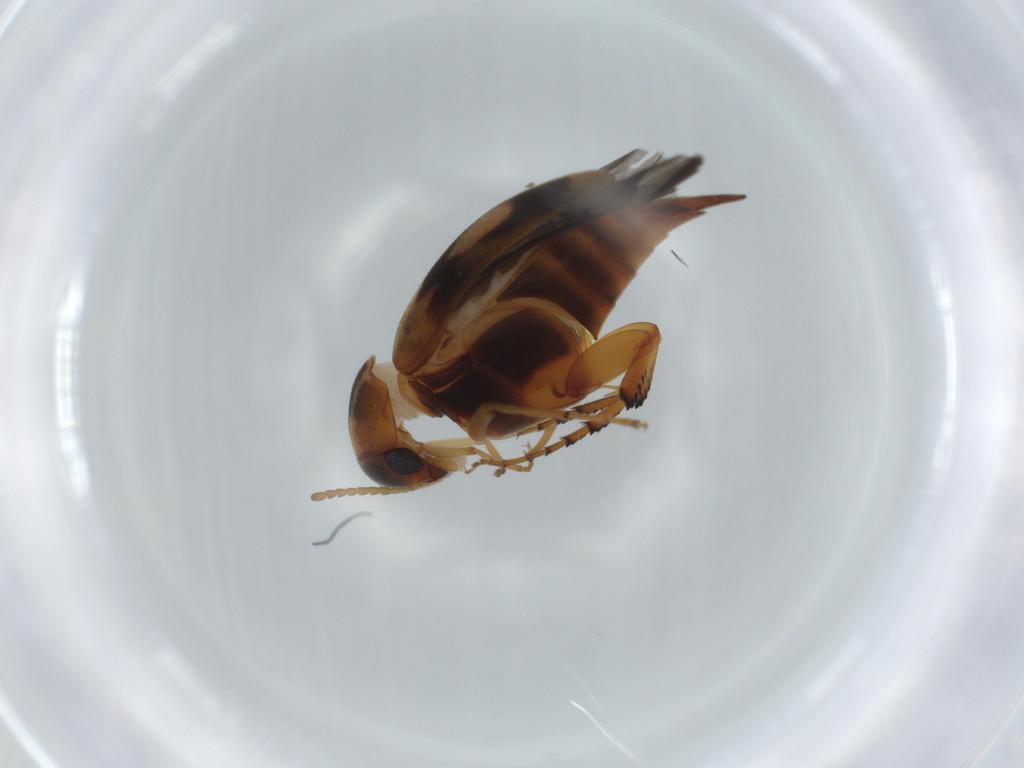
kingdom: Animalia
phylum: Arthropoda
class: Insecta
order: Coleoptera
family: Mordellidae
